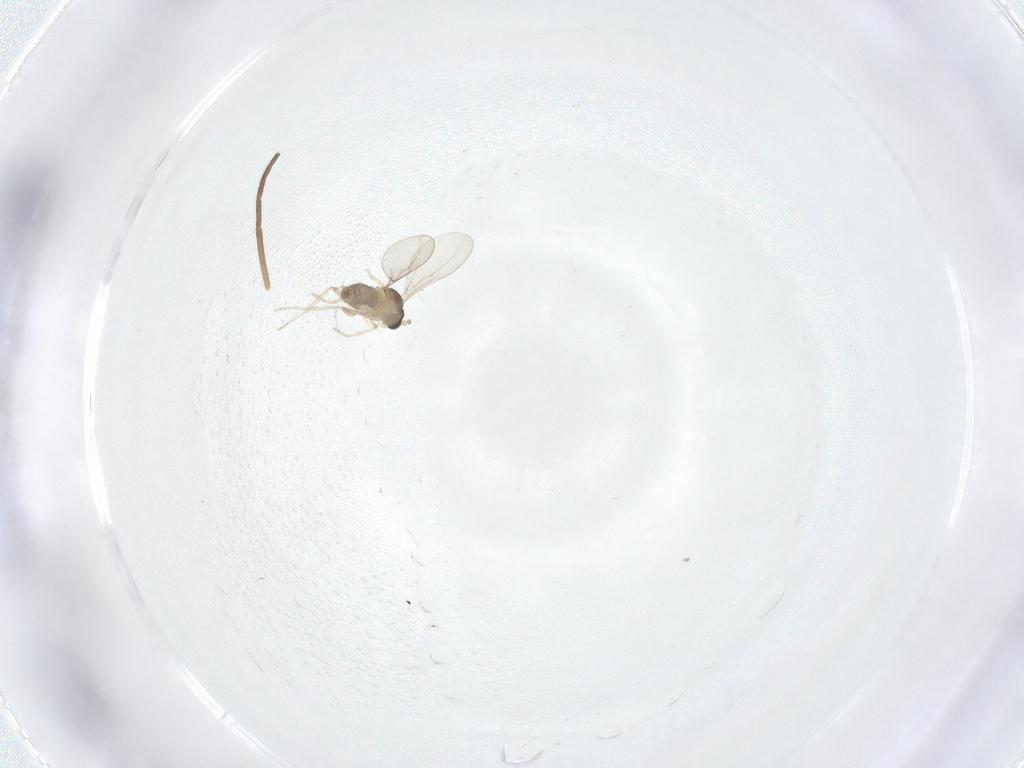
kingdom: Animalia
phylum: Arthropoda
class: Insecta
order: Diptera
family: Cecidomyiidae
